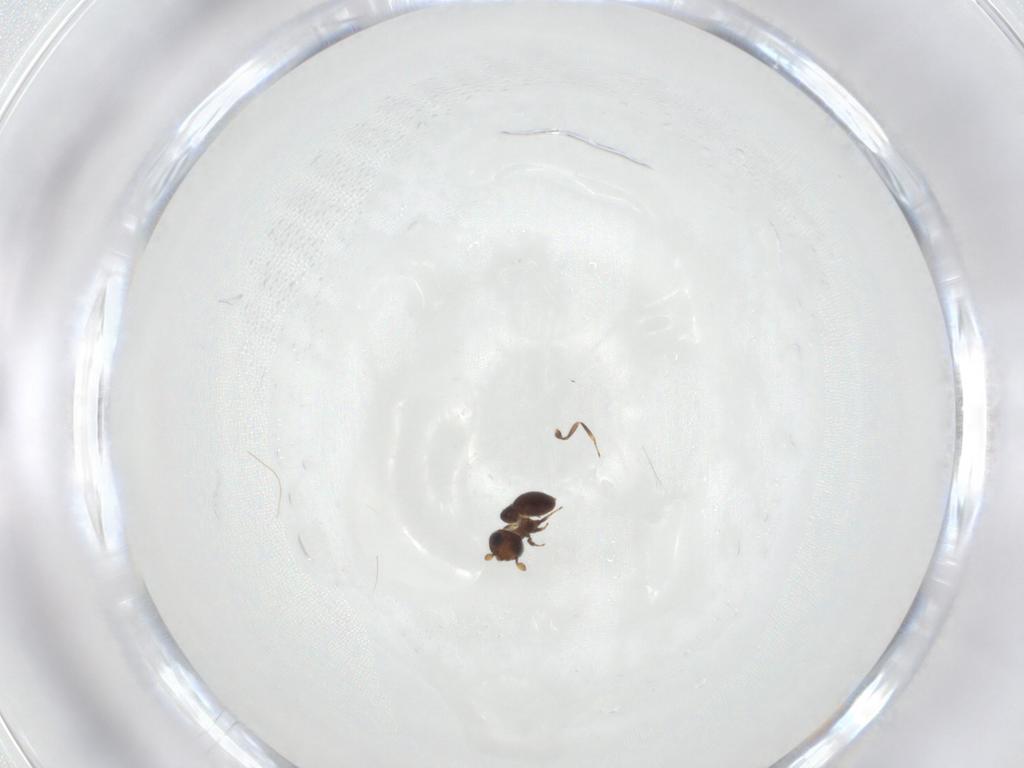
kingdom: Animalia
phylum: Arthropoda
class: Insecta
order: Hymenoptera
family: Scelionidae
